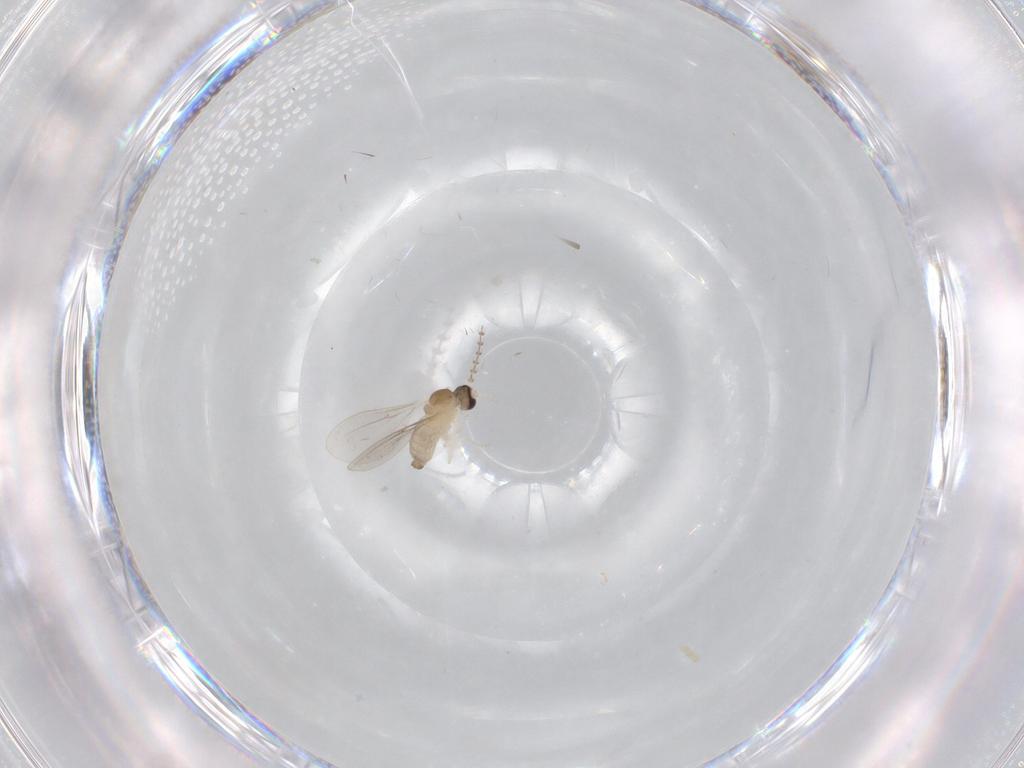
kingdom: Animalia
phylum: Arthropoda
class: Insecta
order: Diptera
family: Cecidomyiidae
